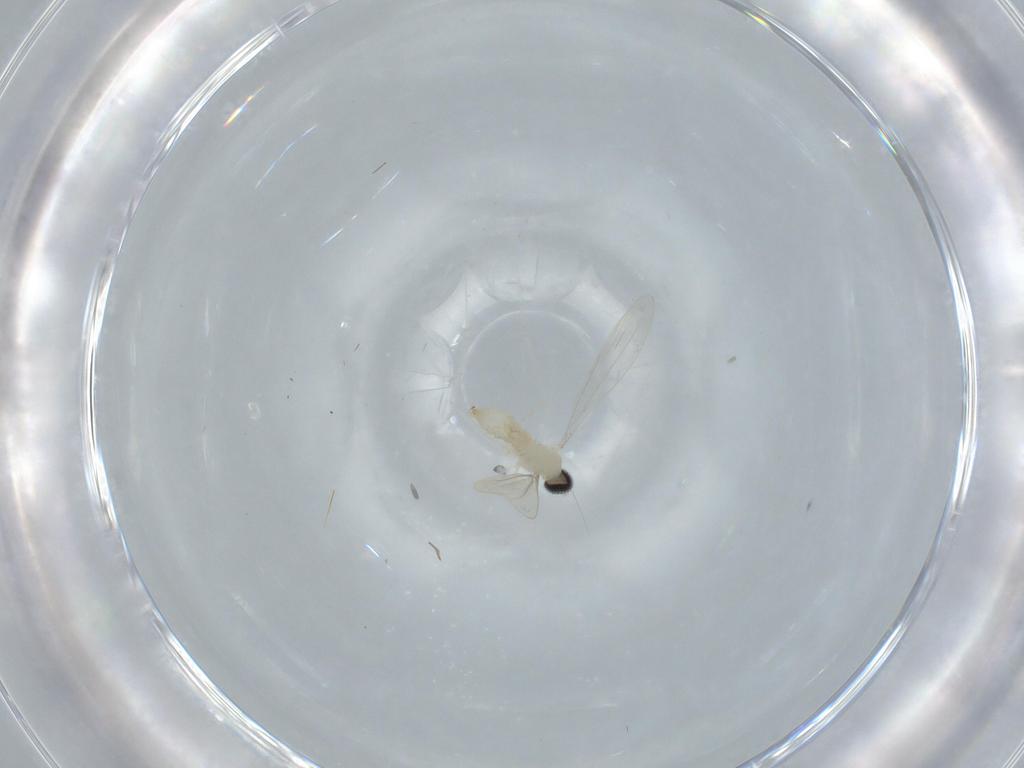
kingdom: Animalia
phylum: Arthropoda
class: Insecta
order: Diptera
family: Cecidomyiidae
